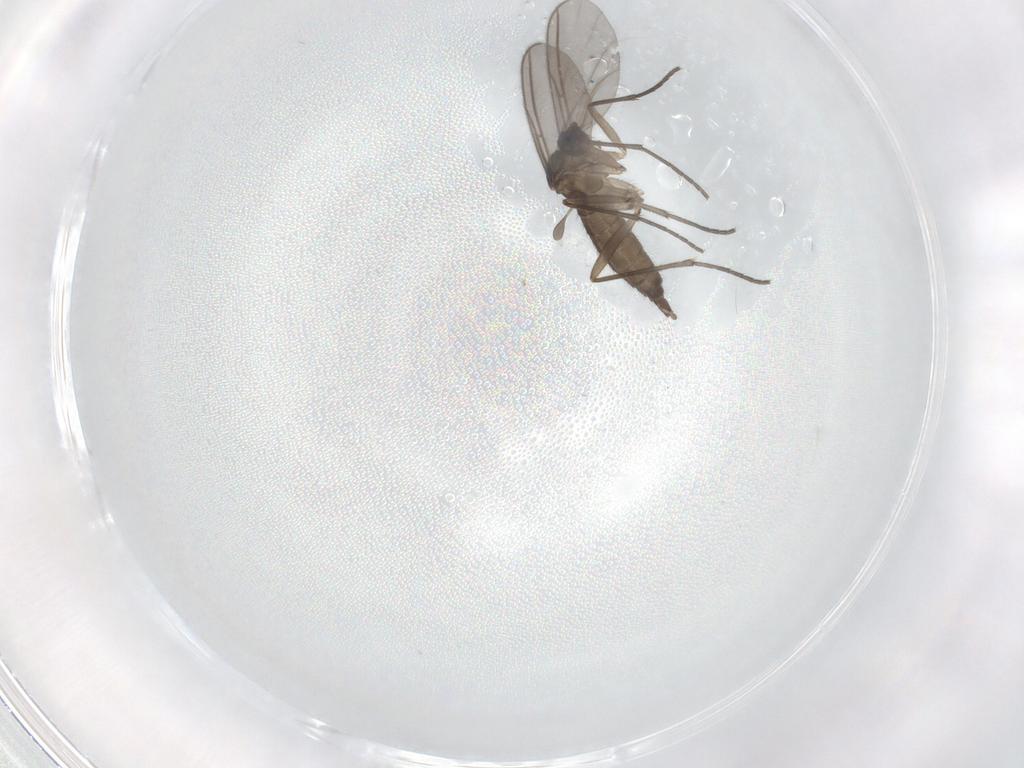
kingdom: Animalia
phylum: Arthropoda
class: Insecta
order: Diptera
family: Sciaridae
